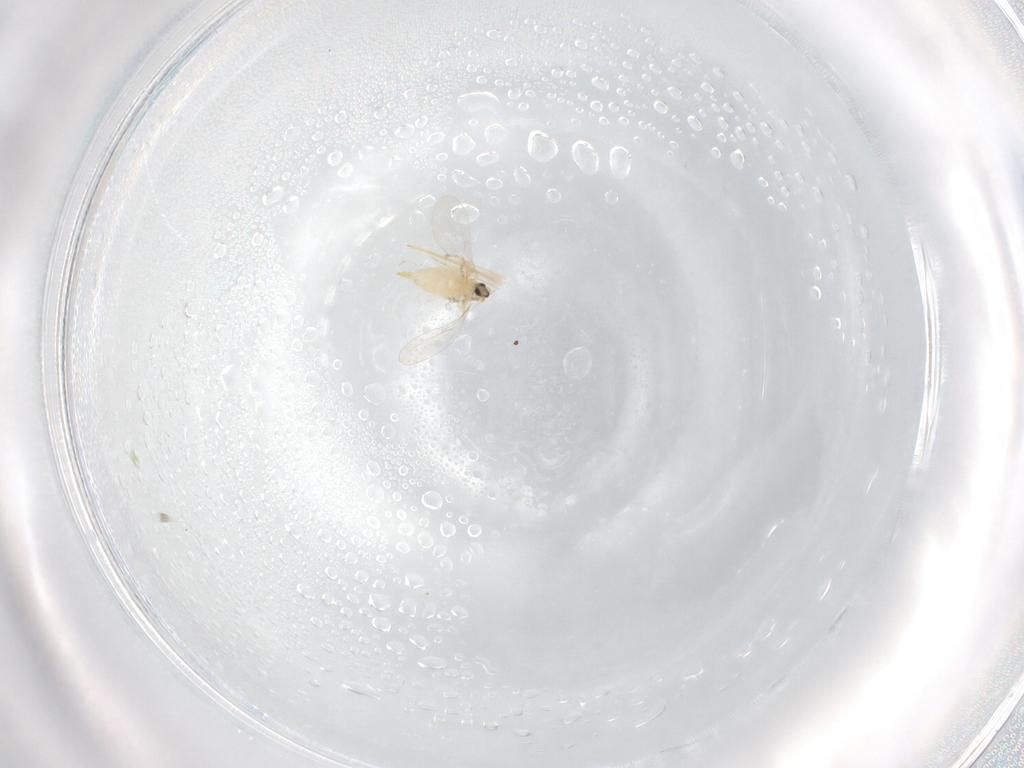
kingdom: Animalia
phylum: Arthropoda
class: Insecta
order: Diptera
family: Cecidomyiidae
